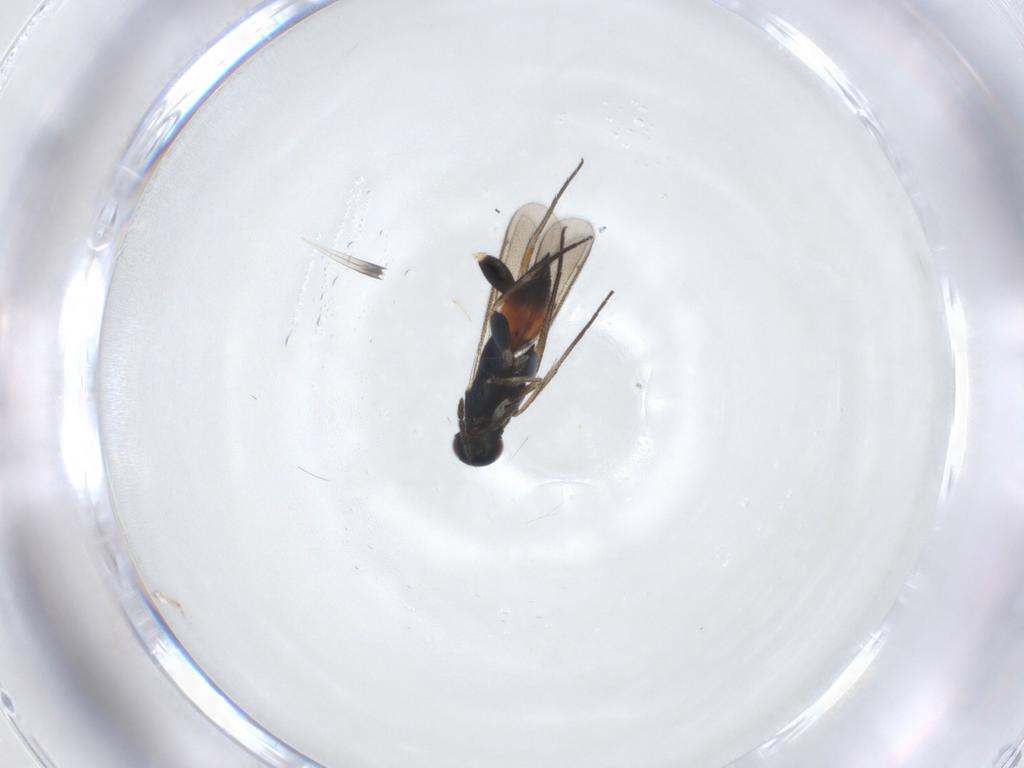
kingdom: Animalia
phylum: Arthropoda
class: Insecta
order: Hymenoptera
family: Eulophidae
